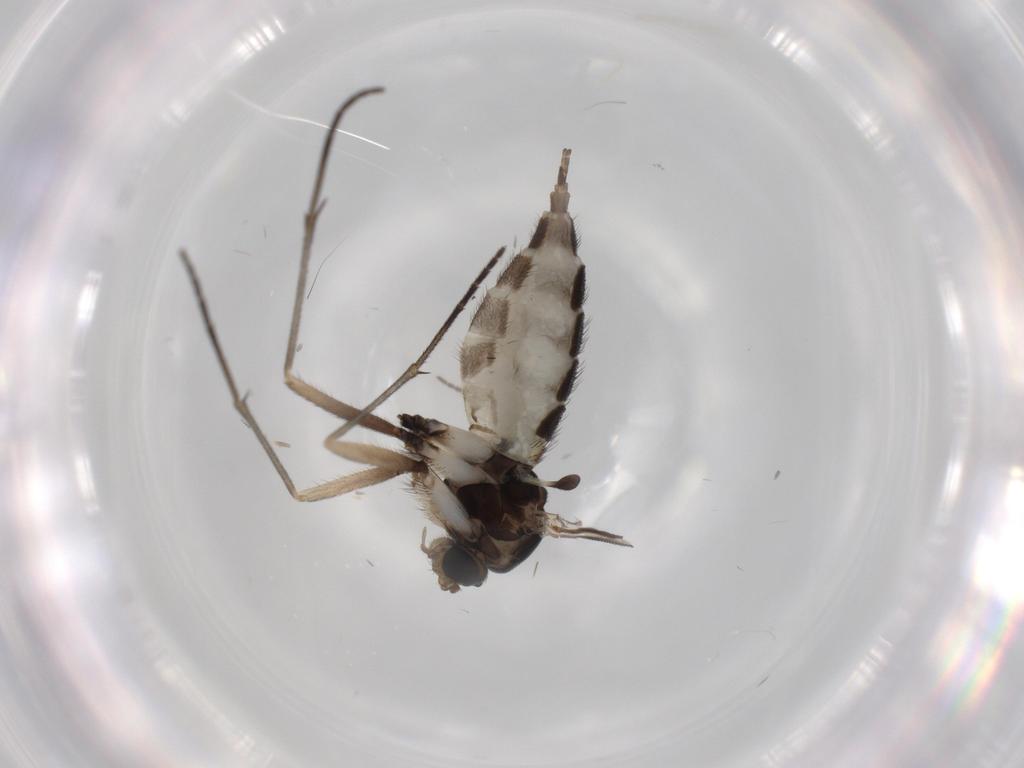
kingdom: Animalia
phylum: Arthropoda
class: Insecta
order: Diptera
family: Sciaridae
